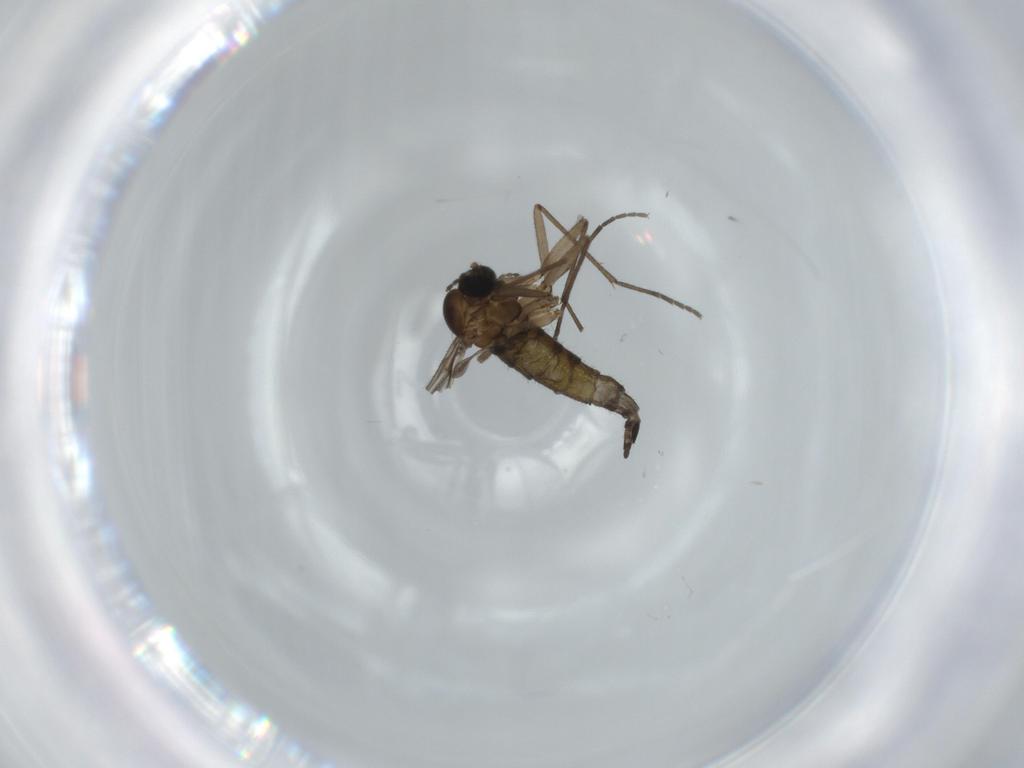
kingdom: Animalia
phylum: Arthropoda
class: Insecta
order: Diptera
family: Sciaridae
